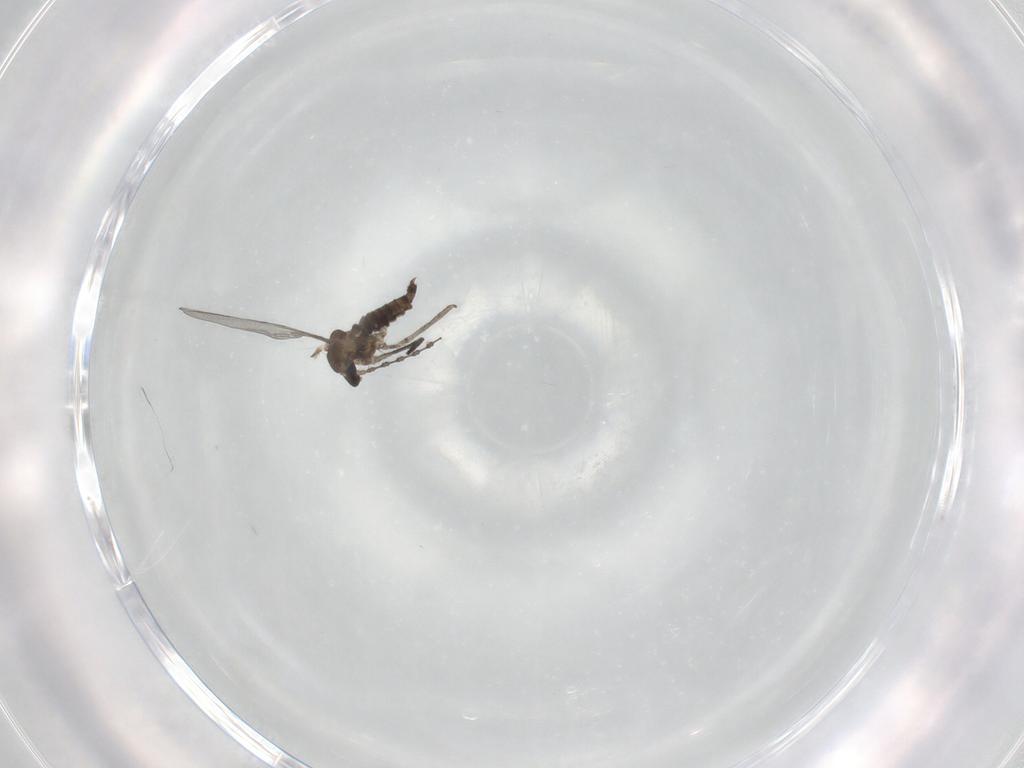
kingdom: Animalia
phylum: Arthropoda
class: Insecta
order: Diptera
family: Cecidomyiidae
